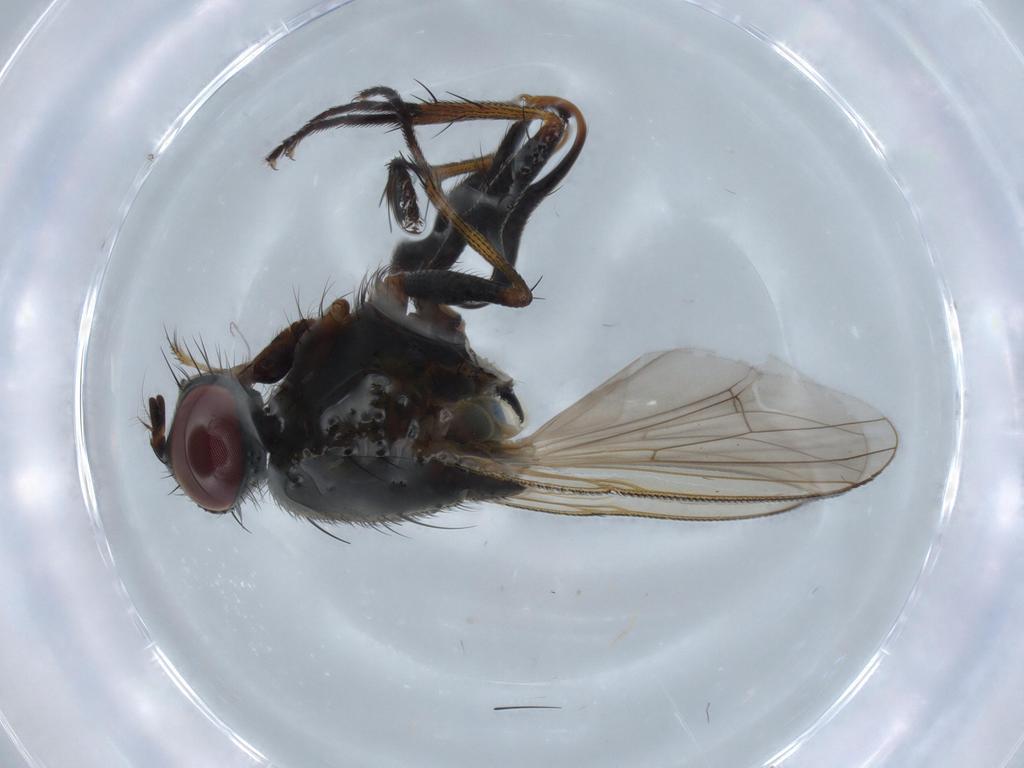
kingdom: Animalia
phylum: Arthropoda
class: Insecta
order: Diptera
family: Muscidae
